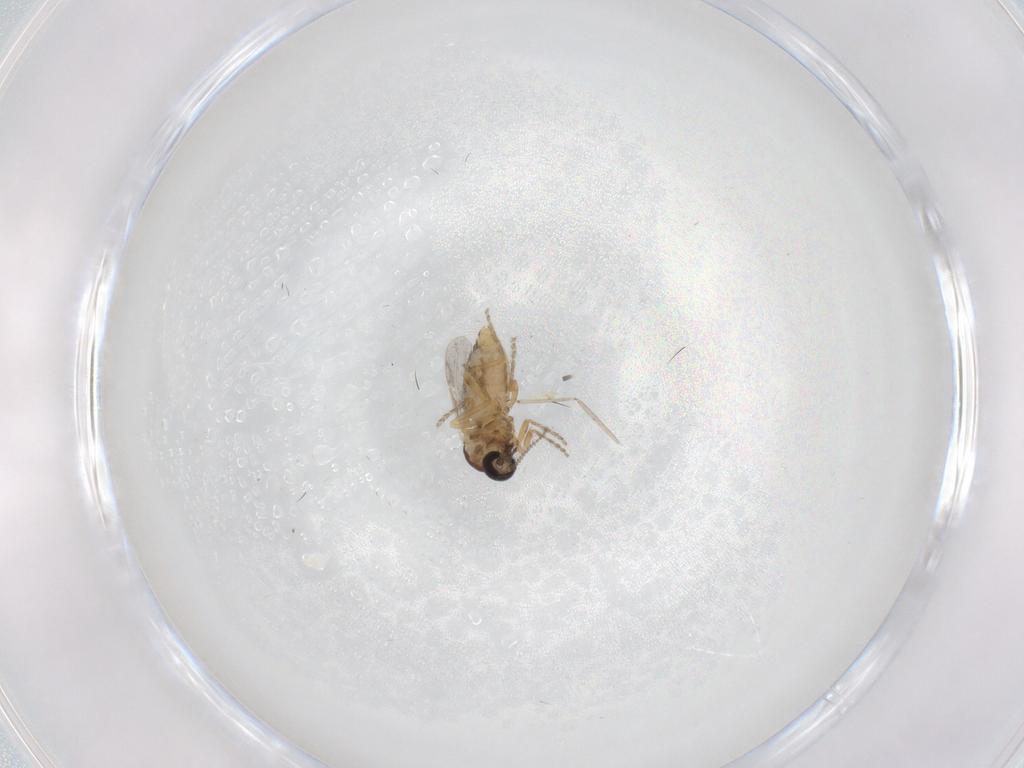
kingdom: Animalia
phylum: Arthropoda
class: Insecta
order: Diptera
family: Ceratopogonidae
